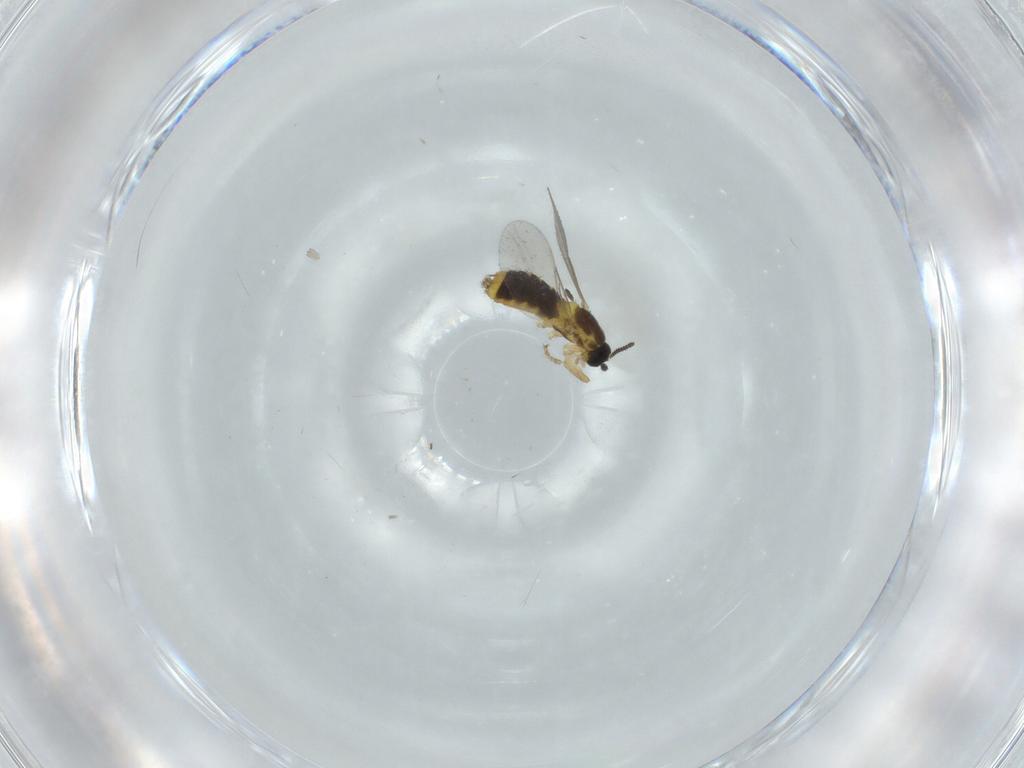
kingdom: Animalia
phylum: Arthropoda
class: Insecta
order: Diptera
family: Scatopsidae
